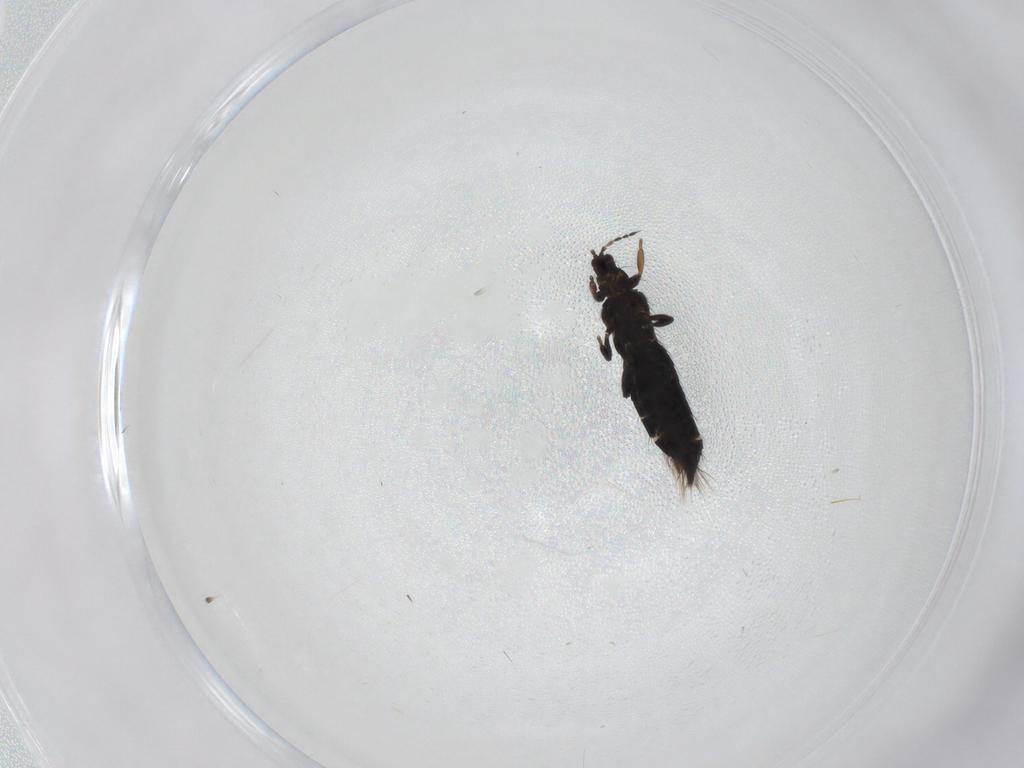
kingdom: Animalia
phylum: Arthropoda
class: Insecta
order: Thysanoptera
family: Thripidae
